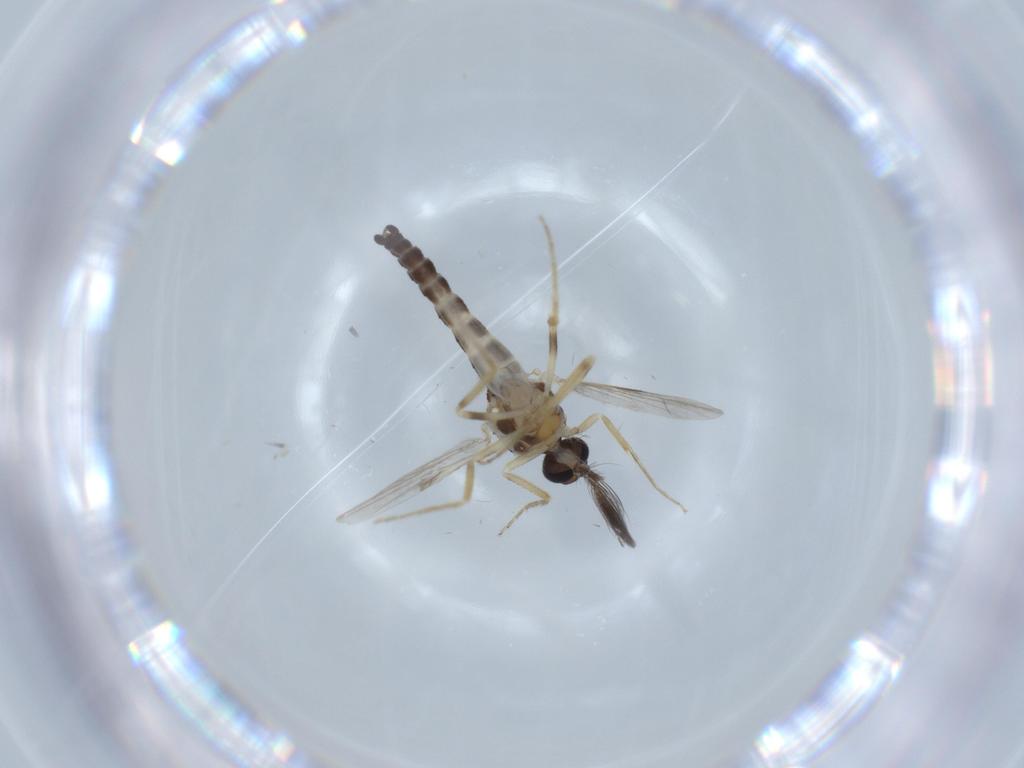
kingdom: Animalia
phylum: Arthropoda
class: Insecta
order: Diptera
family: Ceratopogonidae
